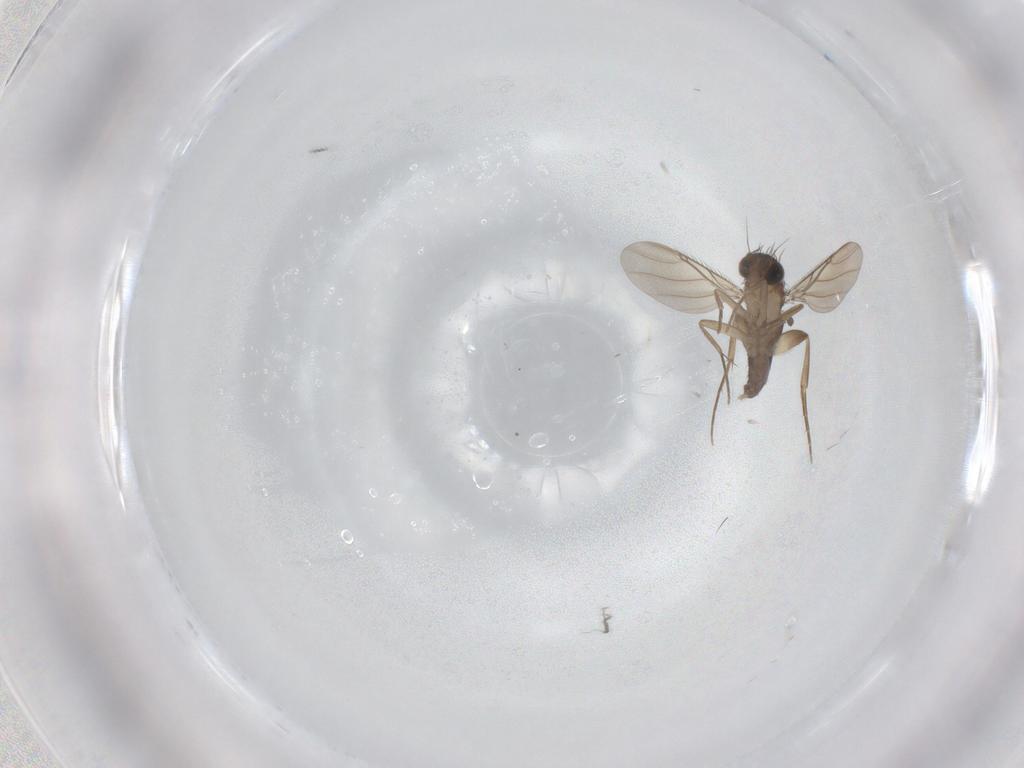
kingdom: Animalia
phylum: Arthropoda
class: Insecta
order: Diptera
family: Phoridae
